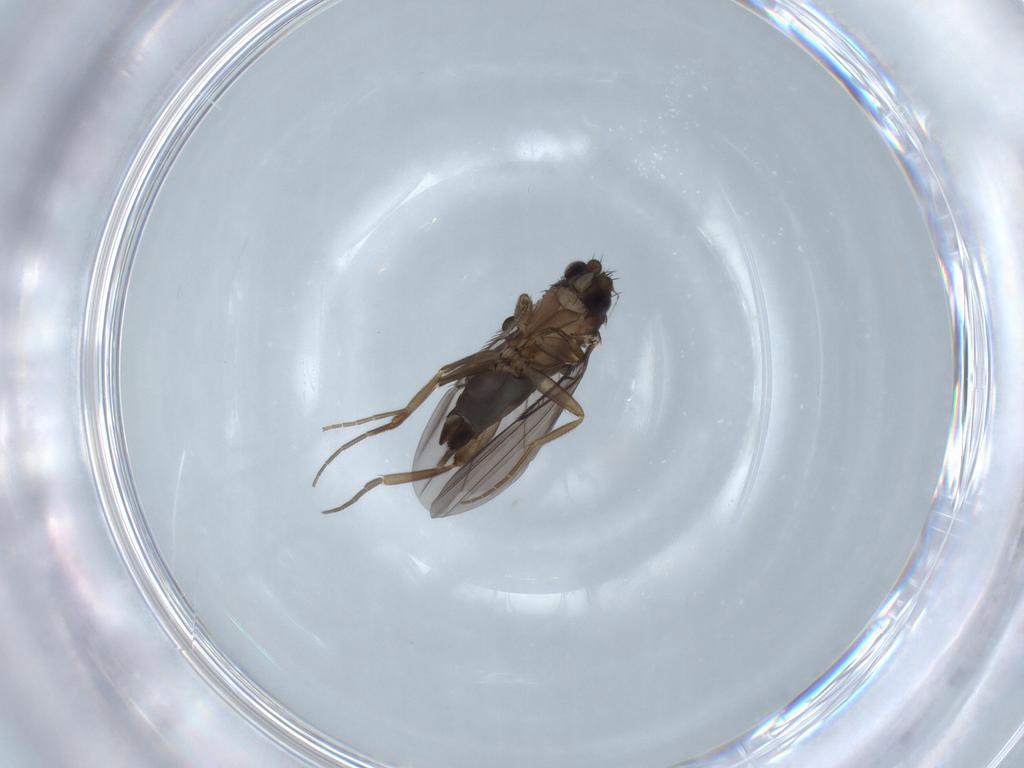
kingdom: Animalia
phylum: Arthropoda
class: Insecta
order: Diptera
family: Phoridae
